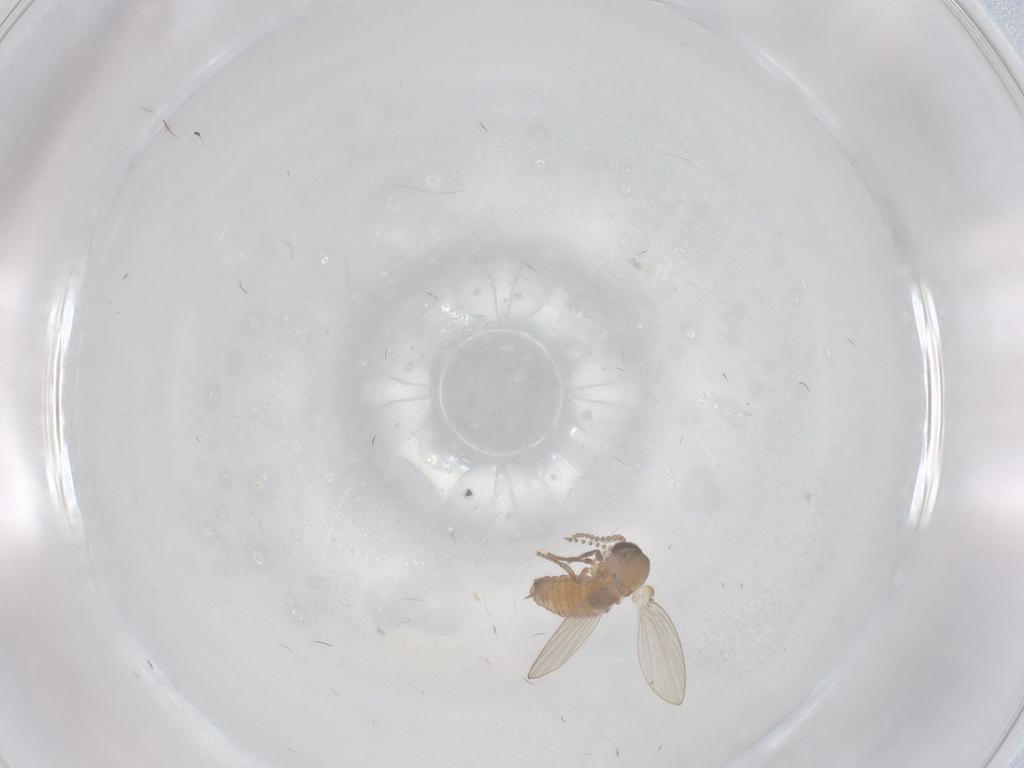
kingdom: Animalia
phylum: Arthropoda
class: Insecta
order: Diptera
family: Psychodidae
